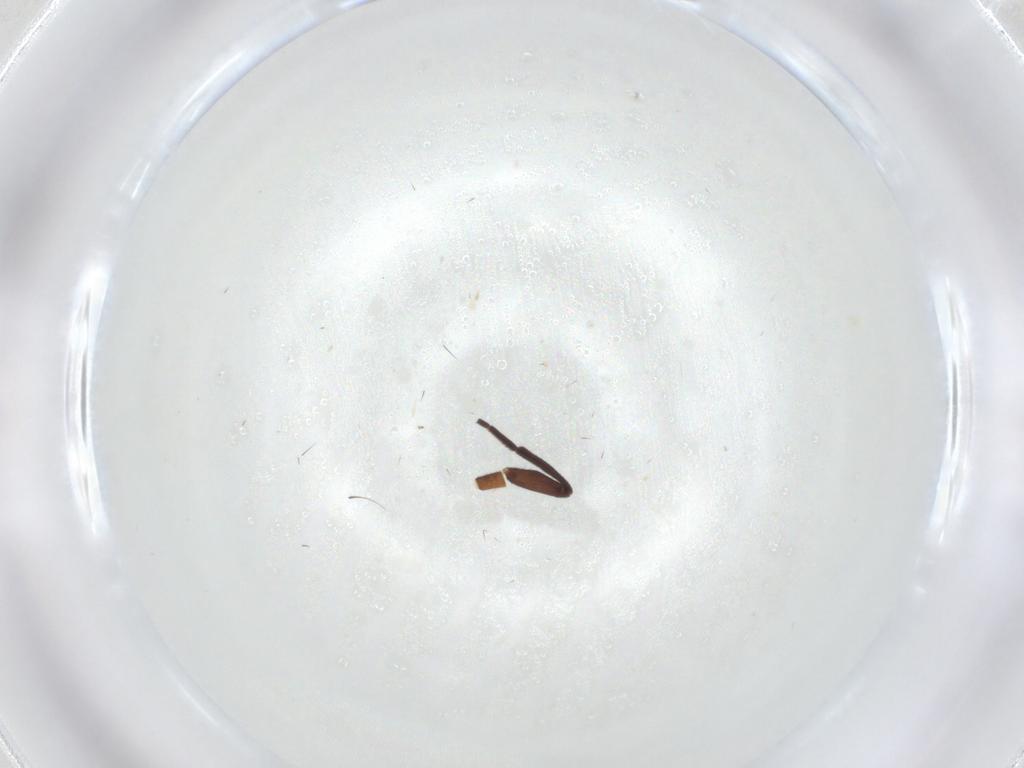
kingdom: Animalia
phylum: Arthropoda
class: Insecta
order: Diptera
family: Agromyzidae
